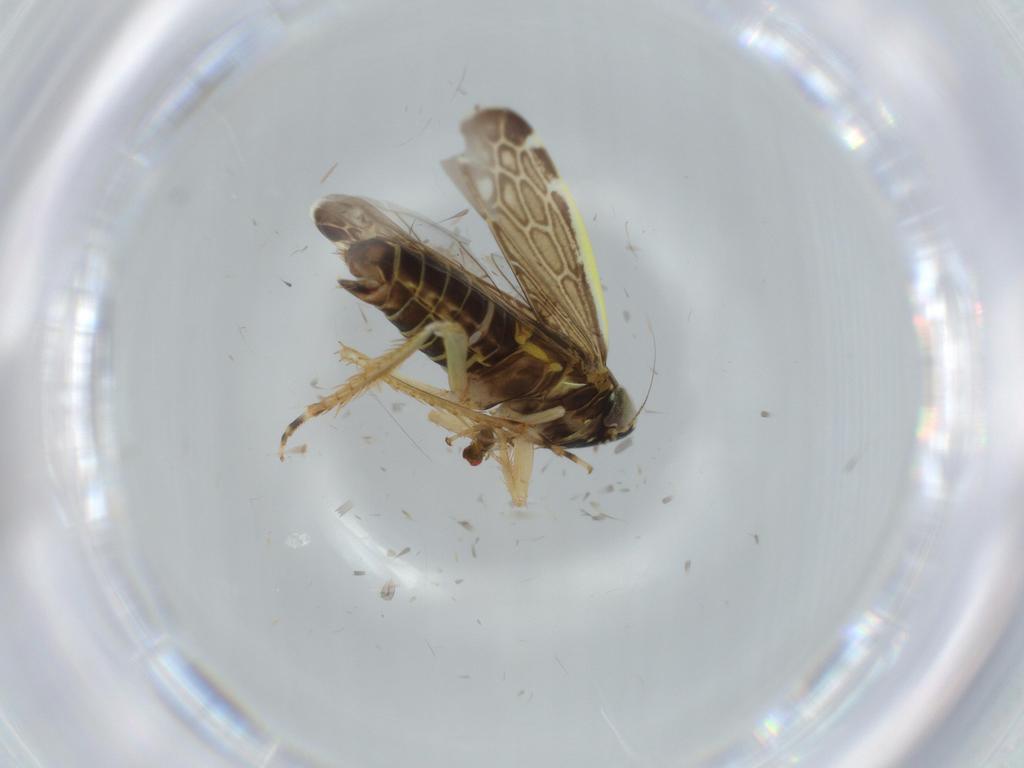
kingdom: Animalia
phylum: Arthropoda
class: Insecta
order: Hemiptera
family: Cicadellidae
